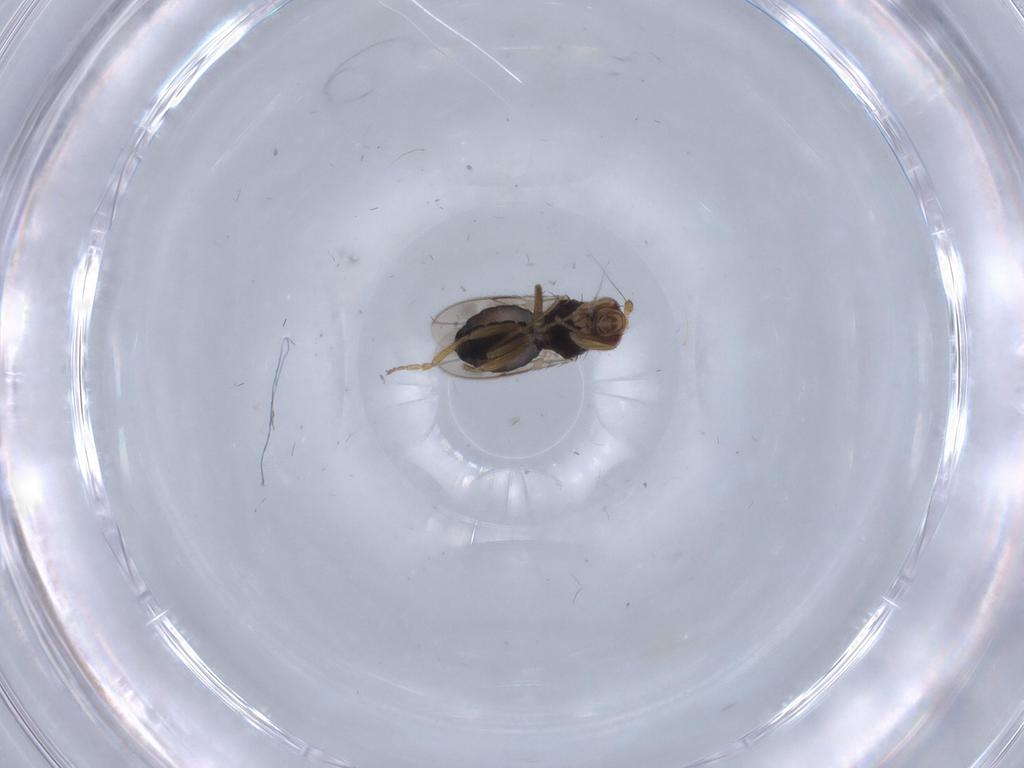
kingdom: Animalia
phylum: Arthropoda
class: Insecta
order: Diptera
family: Sphaeroceridae
